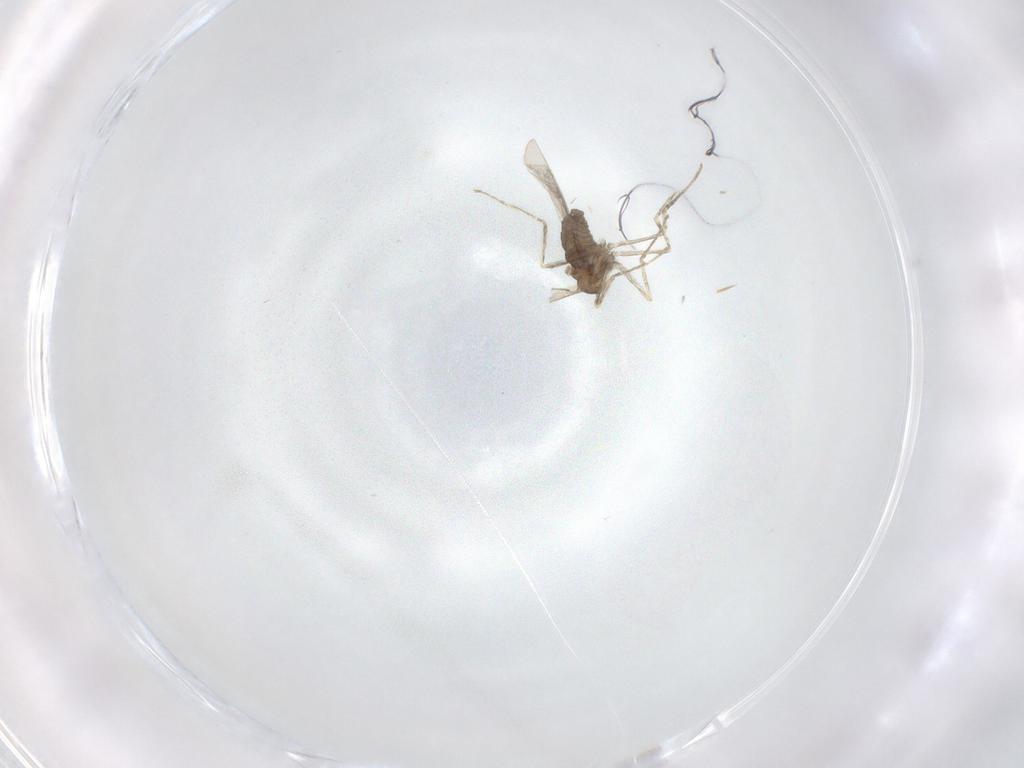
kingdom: Animalia
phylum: Arthropoda
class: Insecta
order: Diptera
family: Cecidomyiidae
